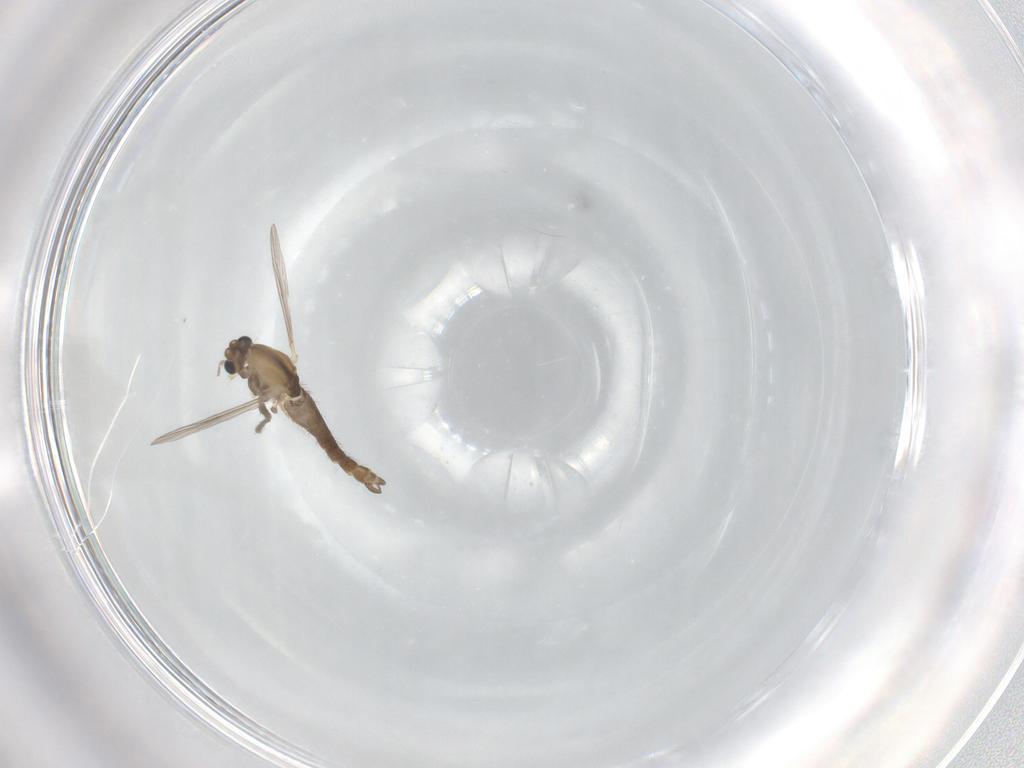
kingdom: Animalia
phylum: Arthropoda
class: Insecta
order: Diptera
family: Chironomidae
